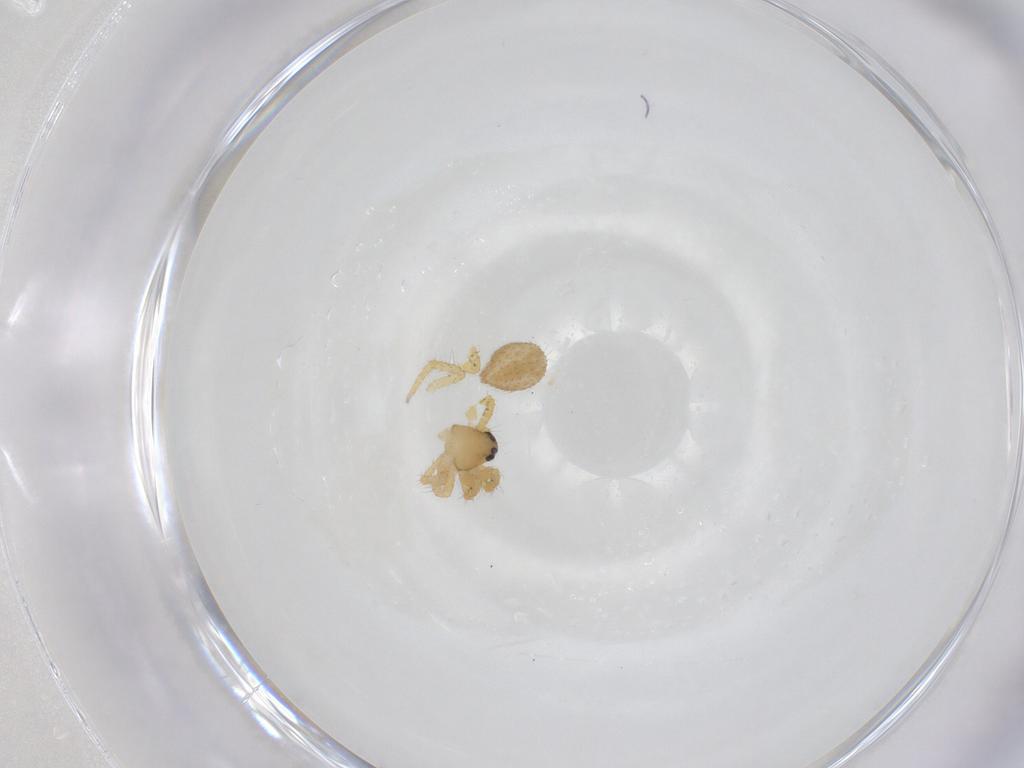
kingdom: Animalia
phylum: Arthropoda
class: Arachnida
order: Araneae
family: Theridiidae
